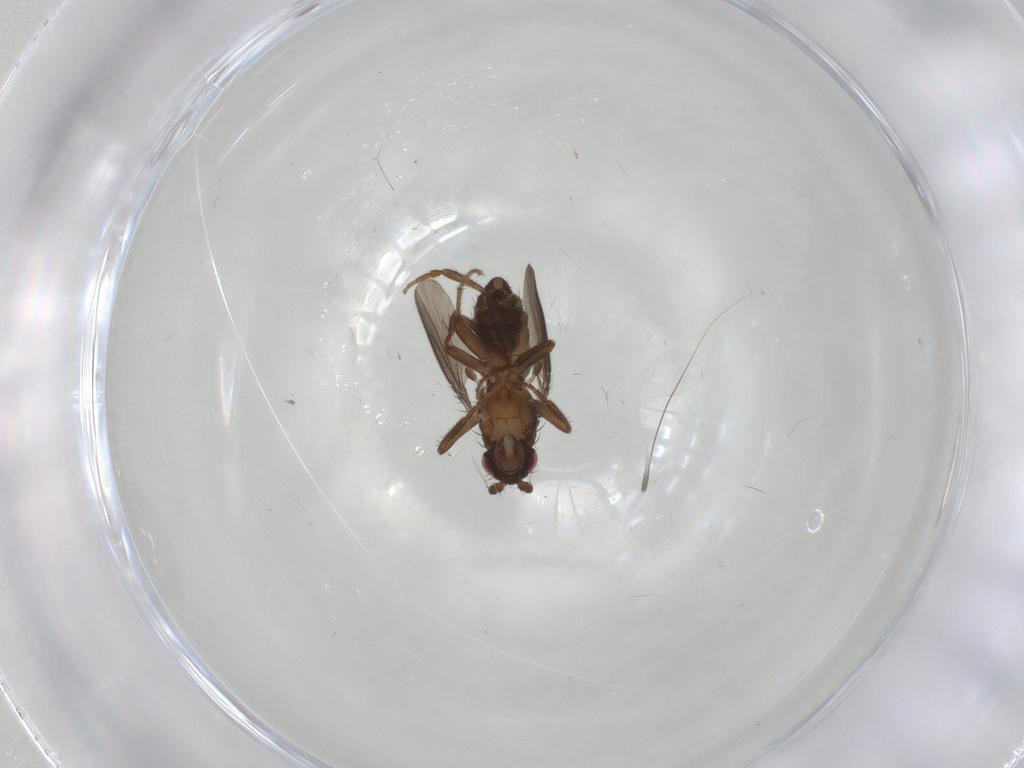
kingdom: Animalia
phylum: Arthropoda
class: Insecta
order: Diptera
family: Sphaeroceridae
